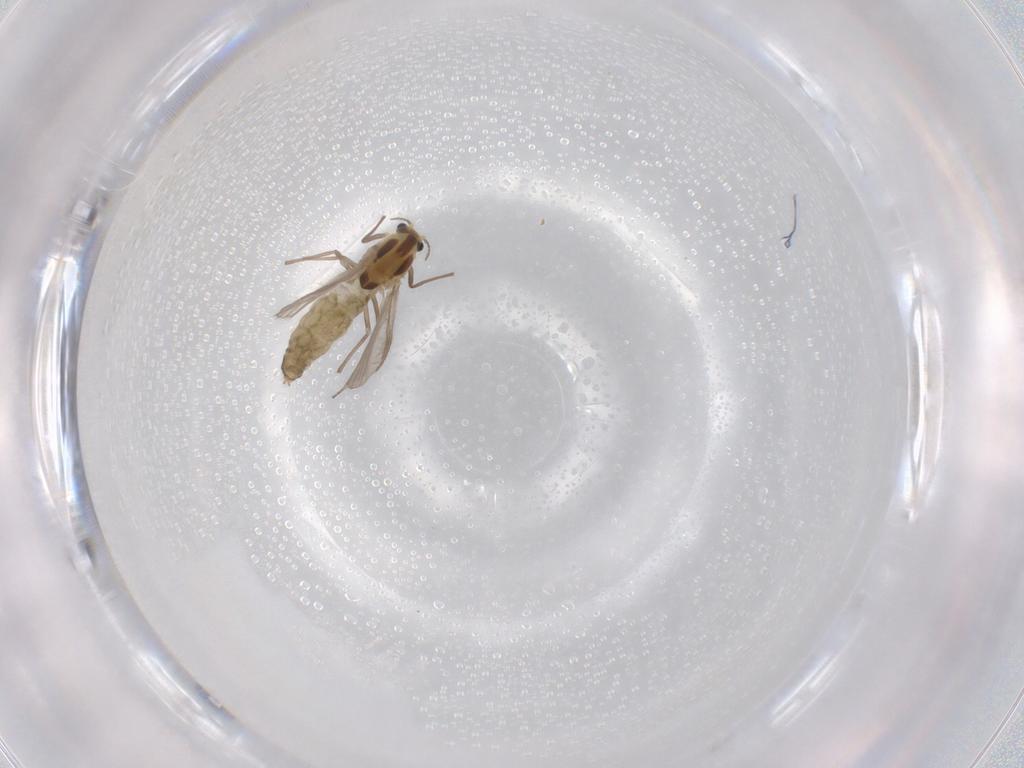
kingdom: Animalia
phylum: Arthropoda
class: Insecta
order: Diptera
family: Chironomidae
